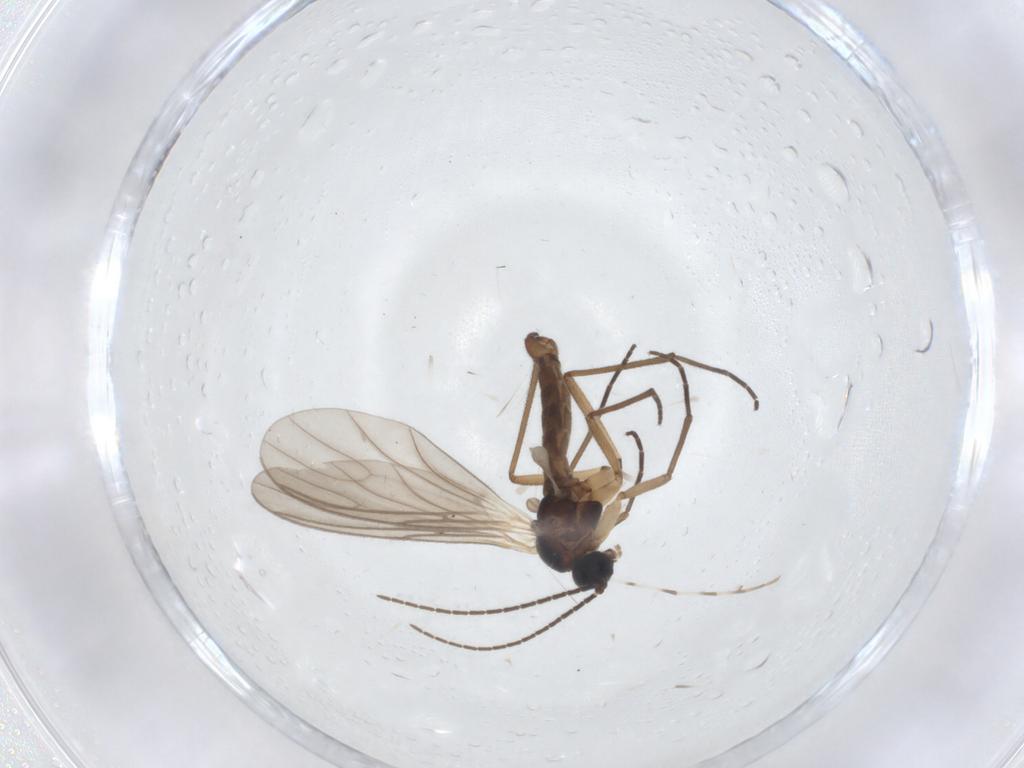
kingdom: Animalia
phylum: Arthropoda
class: Insecta
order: Diptera
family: Sciaridae
